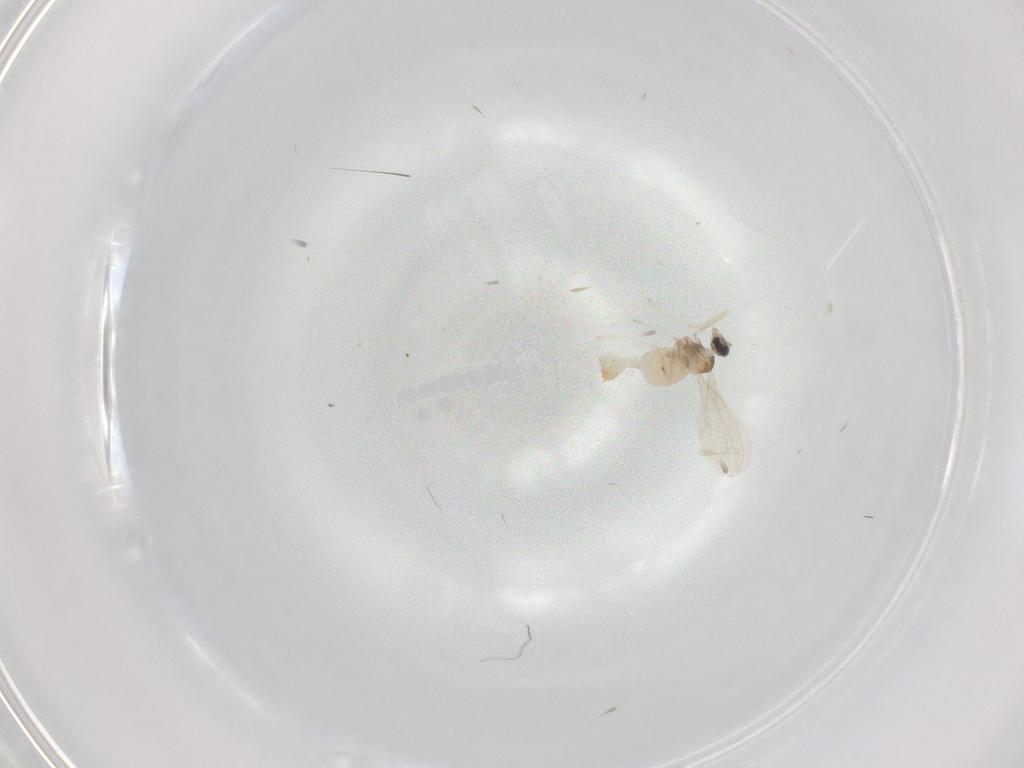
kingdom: Animalia
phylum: Arthropoda
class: Insecta
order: Diptera
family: Cecidomyiidae
